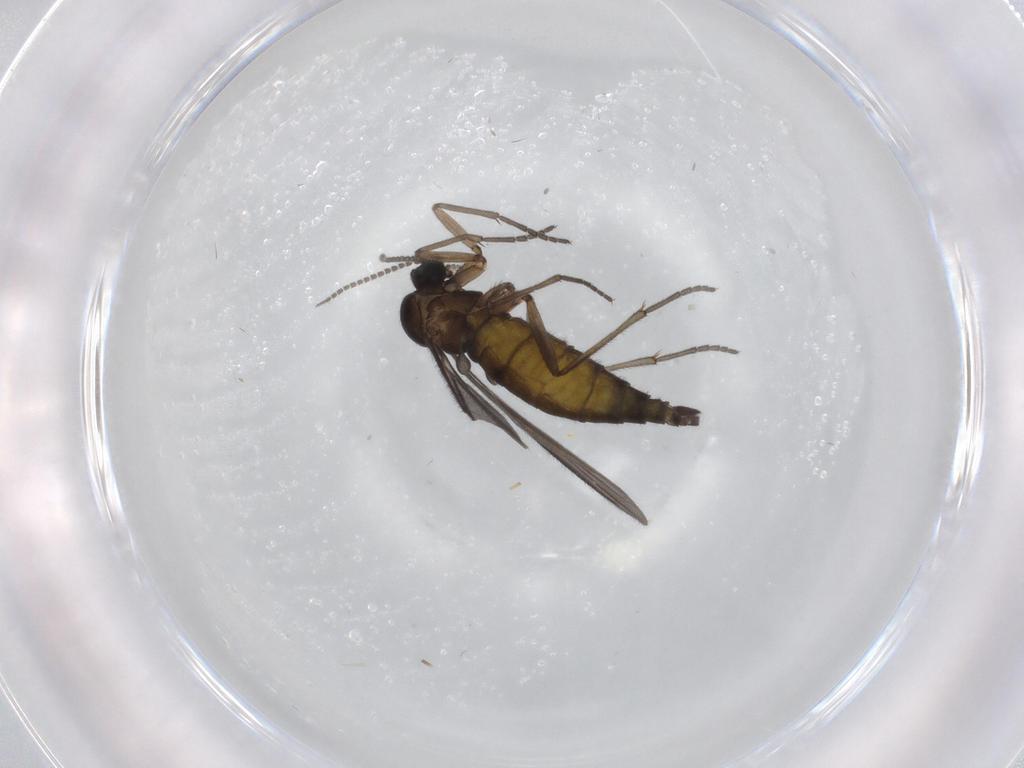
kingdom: Animalia
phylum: Arthropoda
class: Insecta
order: Diptera
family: Sciaridae
